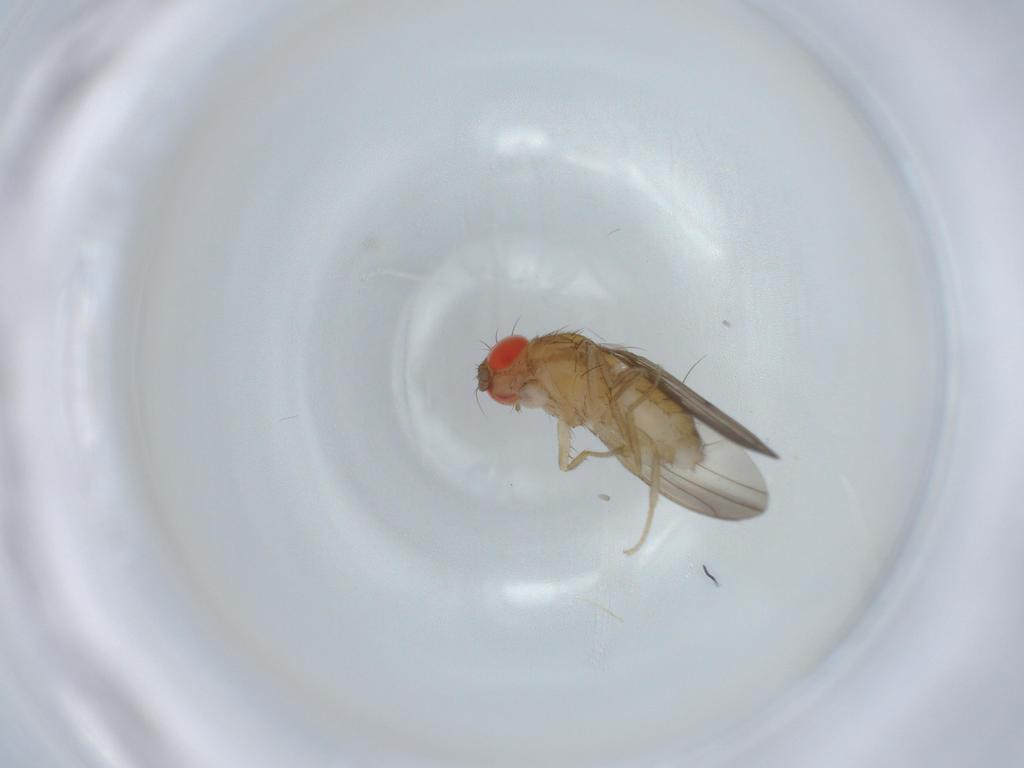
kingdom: Animalia
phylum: Arthropoda
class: Insecta
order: Diptera
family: Drosophilidae
